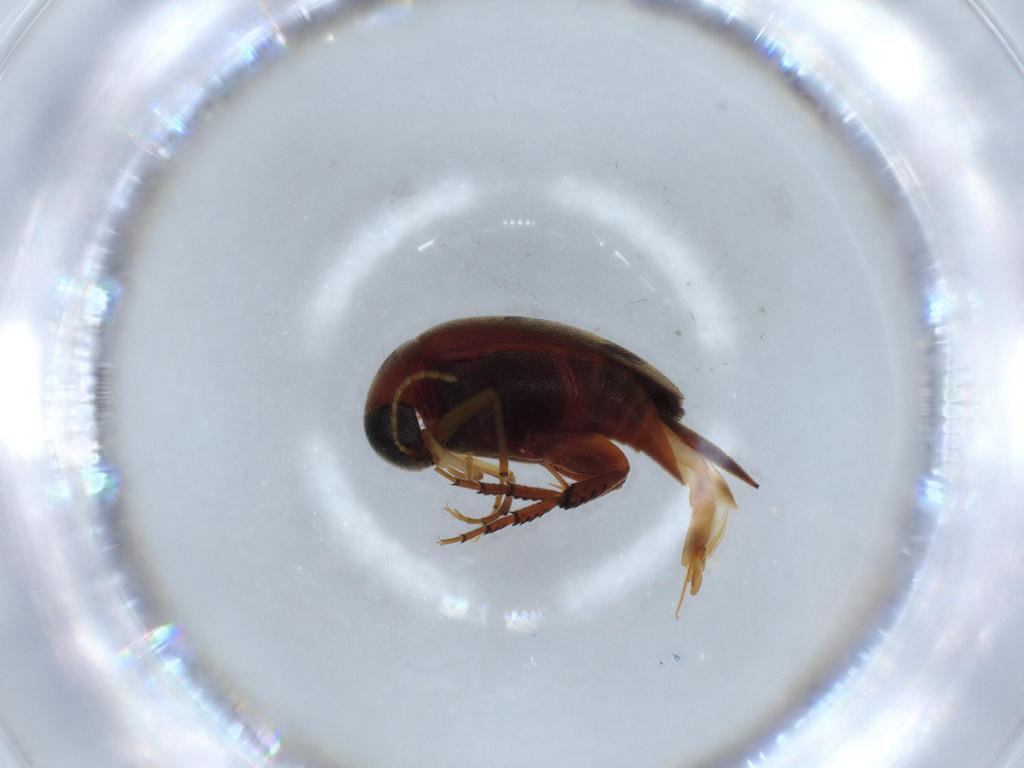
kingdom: Animalia
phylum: Arthropoda
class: Insecta
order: Coleoptera
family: Mordellidae
